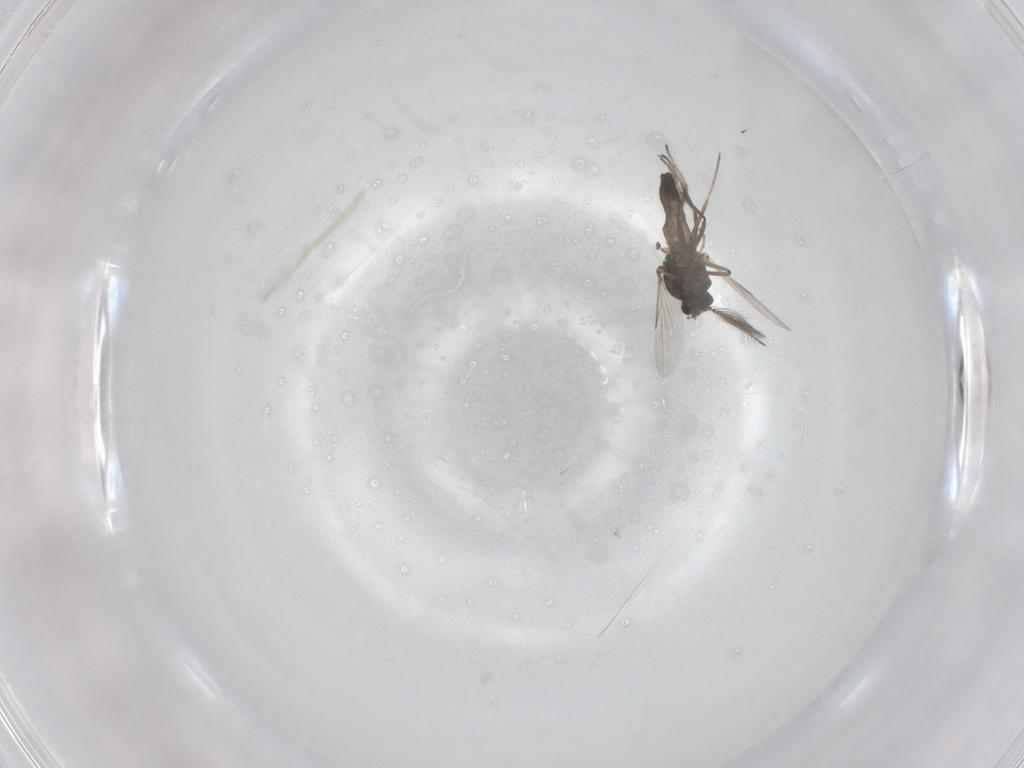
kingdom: Animalia
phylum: Arthropoda
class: Insecta
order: Diptera
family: Ceratopogonidae
